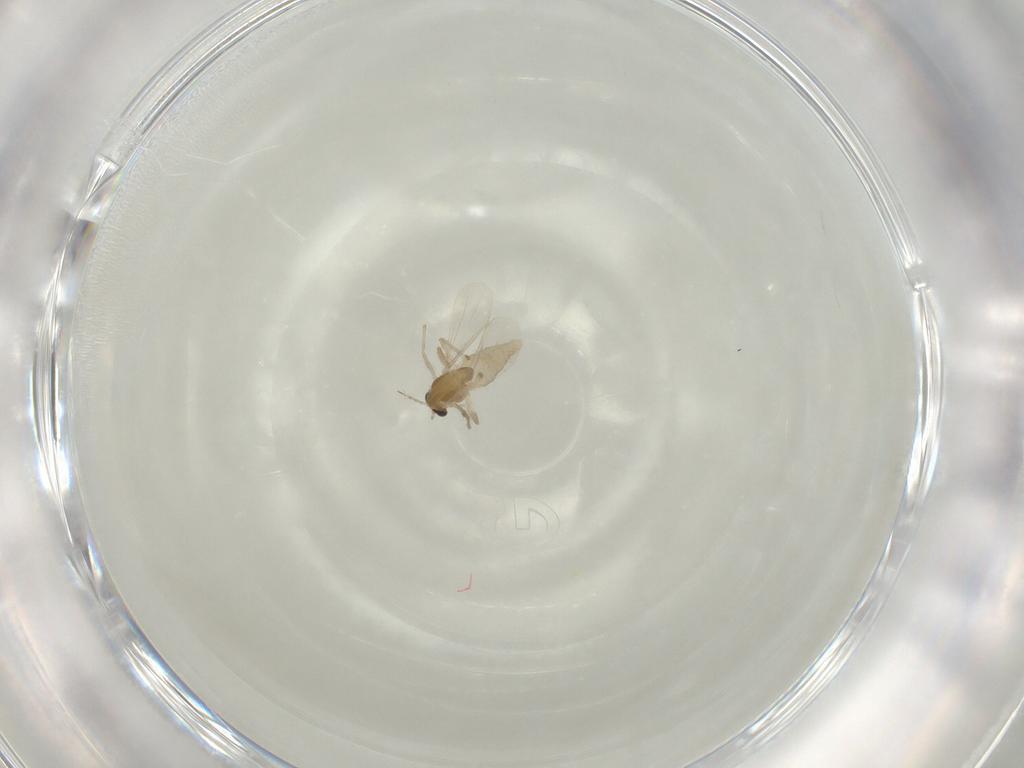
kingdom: Animalia
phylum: Arthropoda
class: Insecta
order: Diptera
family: Chironomidae
